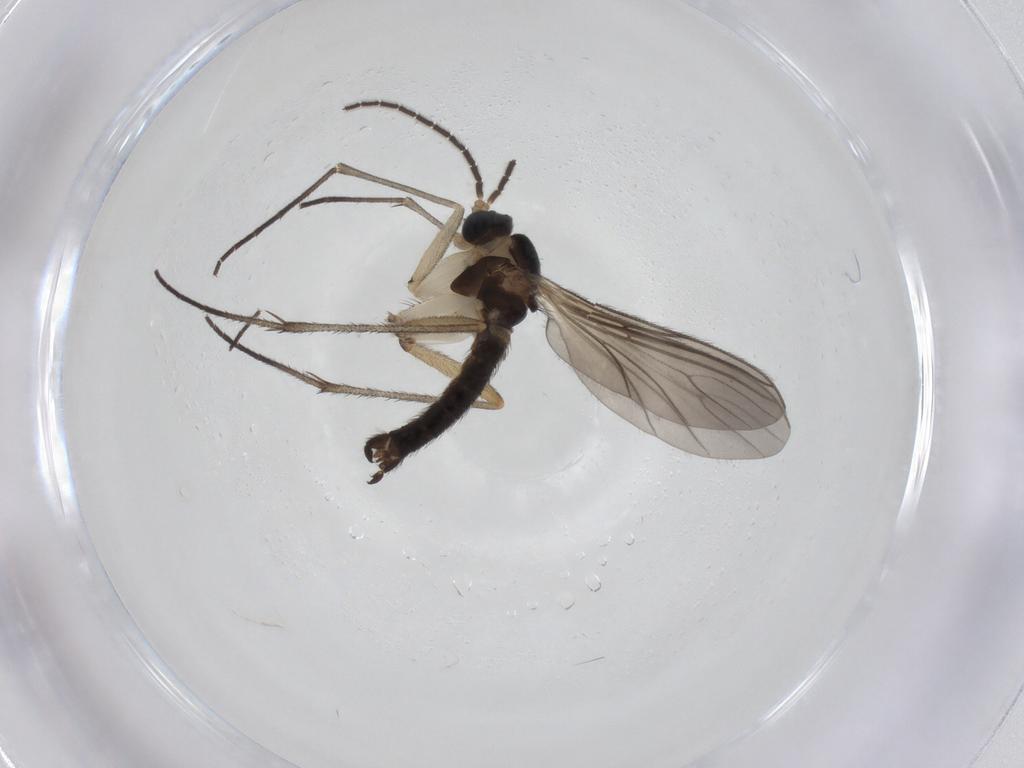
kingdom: Animalia
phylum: Arthropoda
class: Insecta
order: Diptera
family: Sciaridae
